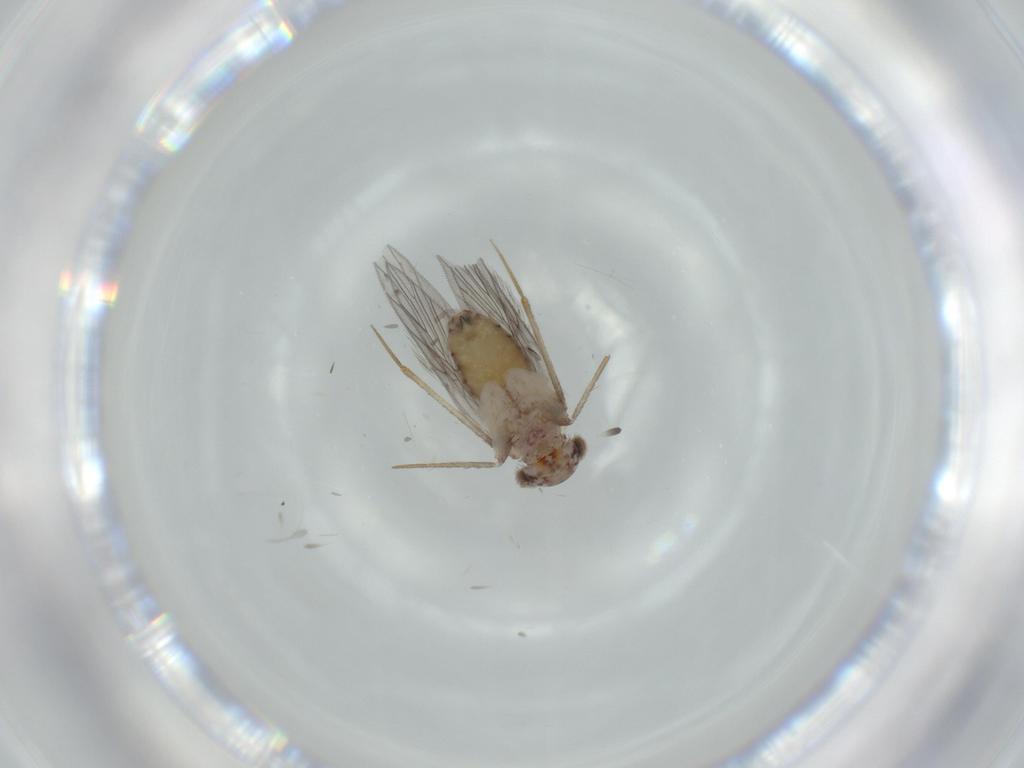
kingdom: Animalia
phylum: Arthropoda
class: Insecta
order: Psocodea
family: Lepidopsocidae
